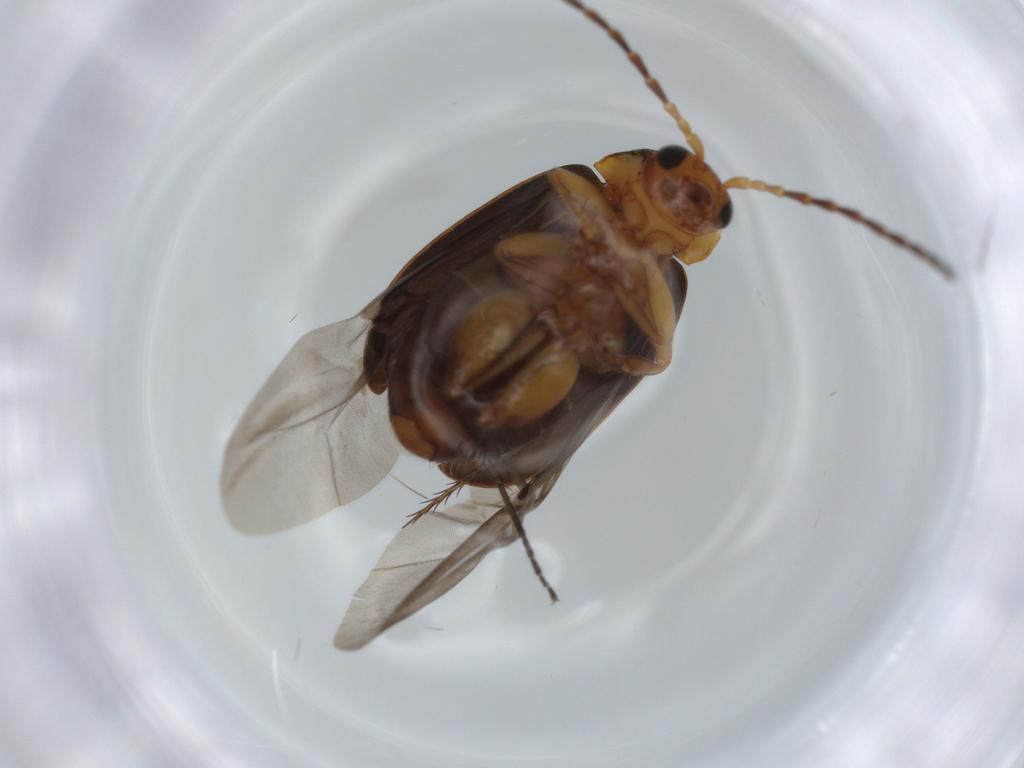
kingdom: Animalia
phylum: Arthropoda
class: Insecta
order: Coleoptera
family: Chrysomelidae
